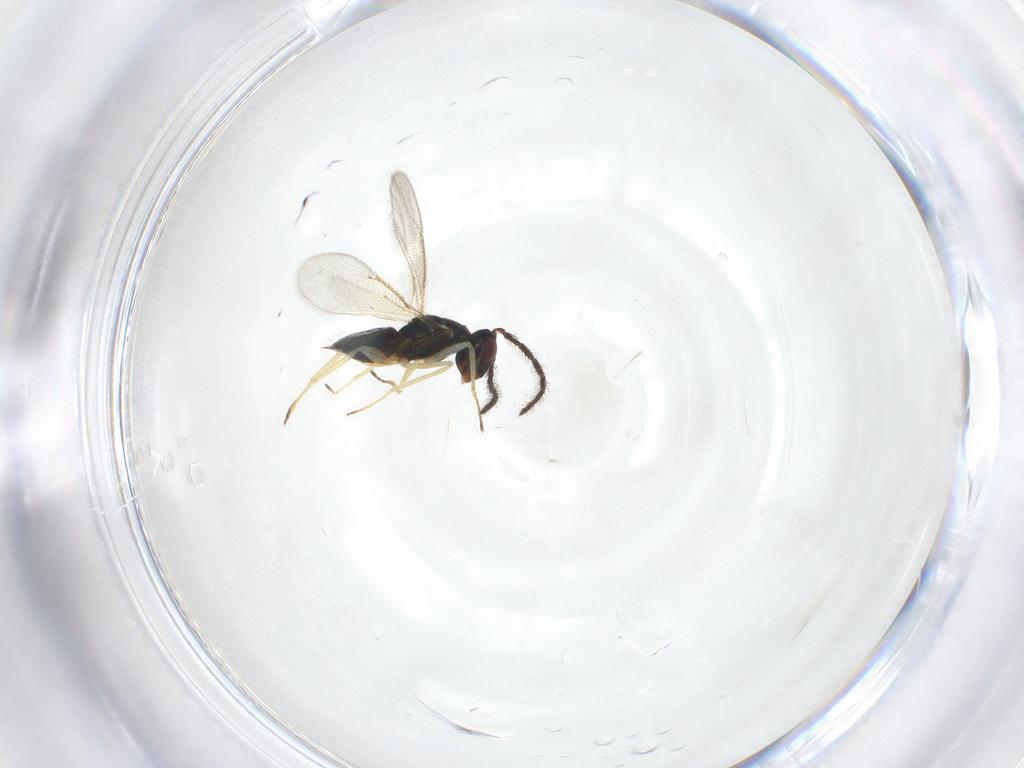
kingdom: Animalia
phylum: Arthropoda
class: Insecta
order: Hymenoptera
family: Eulophidae
